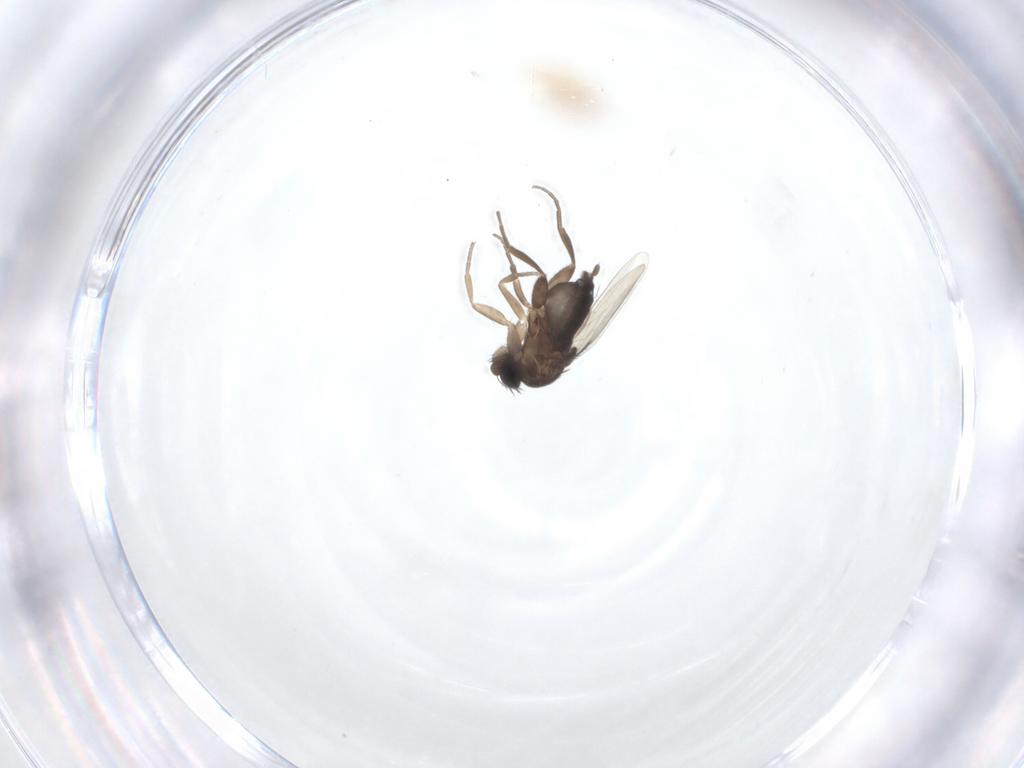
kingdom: Animalia
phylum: Arthropoda
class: Insecta
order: Diptera
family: Phoridae
